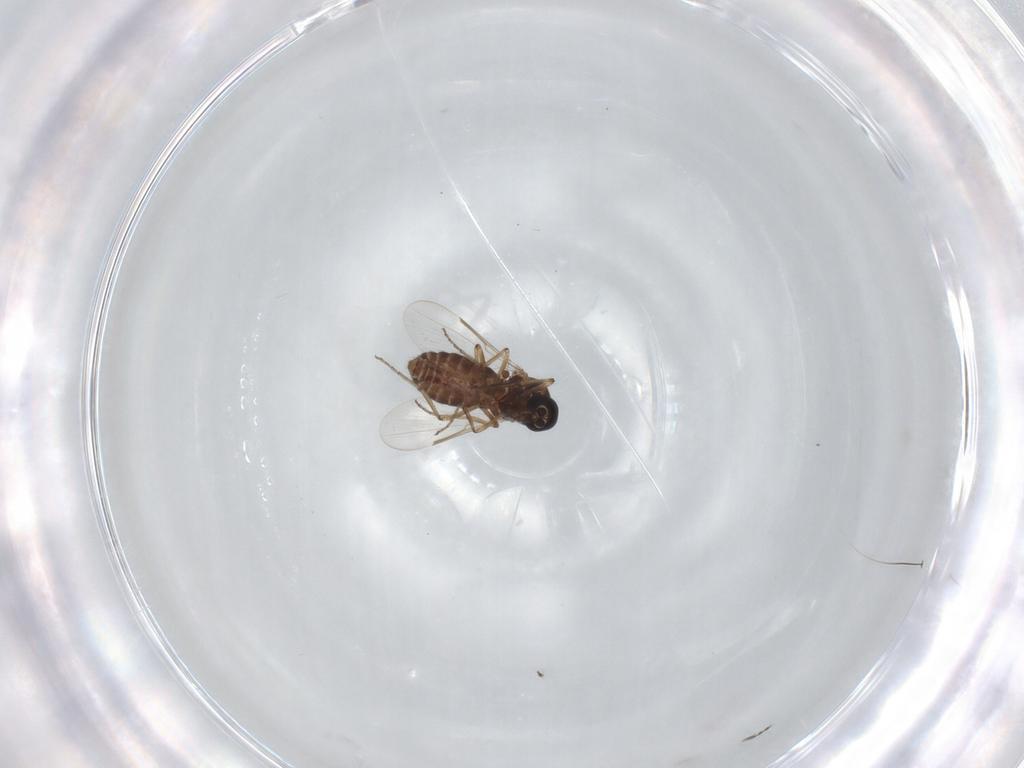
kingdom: Animalia
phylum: Arthropoda
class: Insecta
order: Diptera
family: Ceratopogonidae
